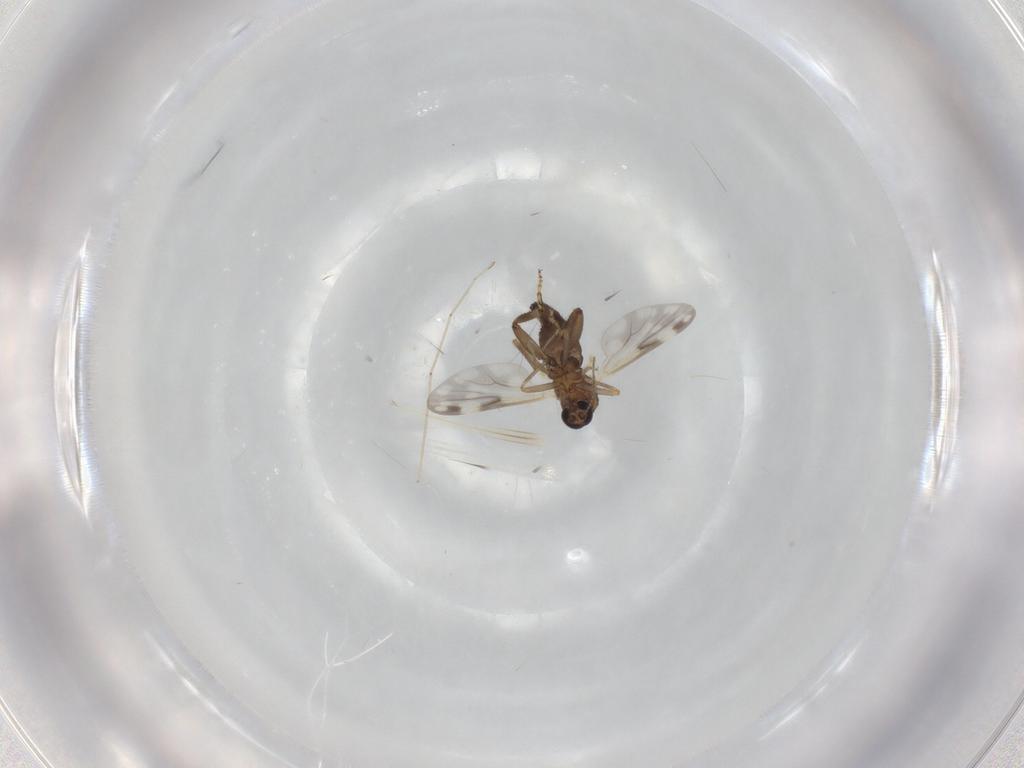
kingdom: Animalia
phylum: Arthropoda
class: Insecta
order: Diptera
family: Ceratopogonidae
